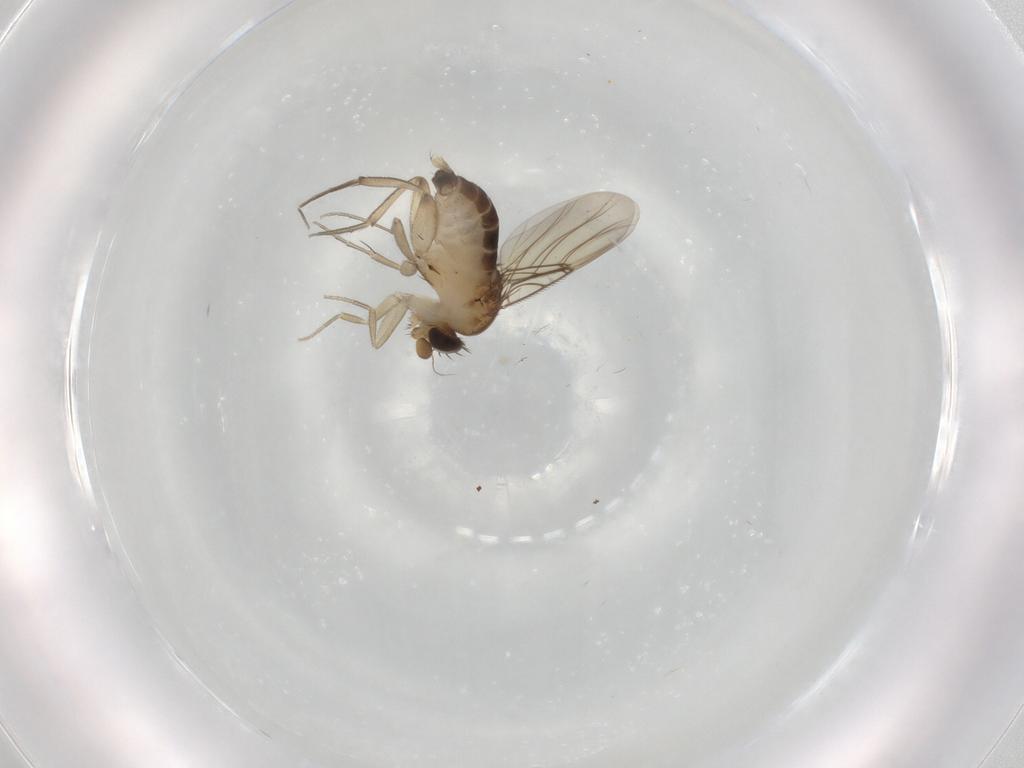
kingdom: Animalia
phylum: Arthropoda
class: Insecta
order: Diptera
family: Phoridae
